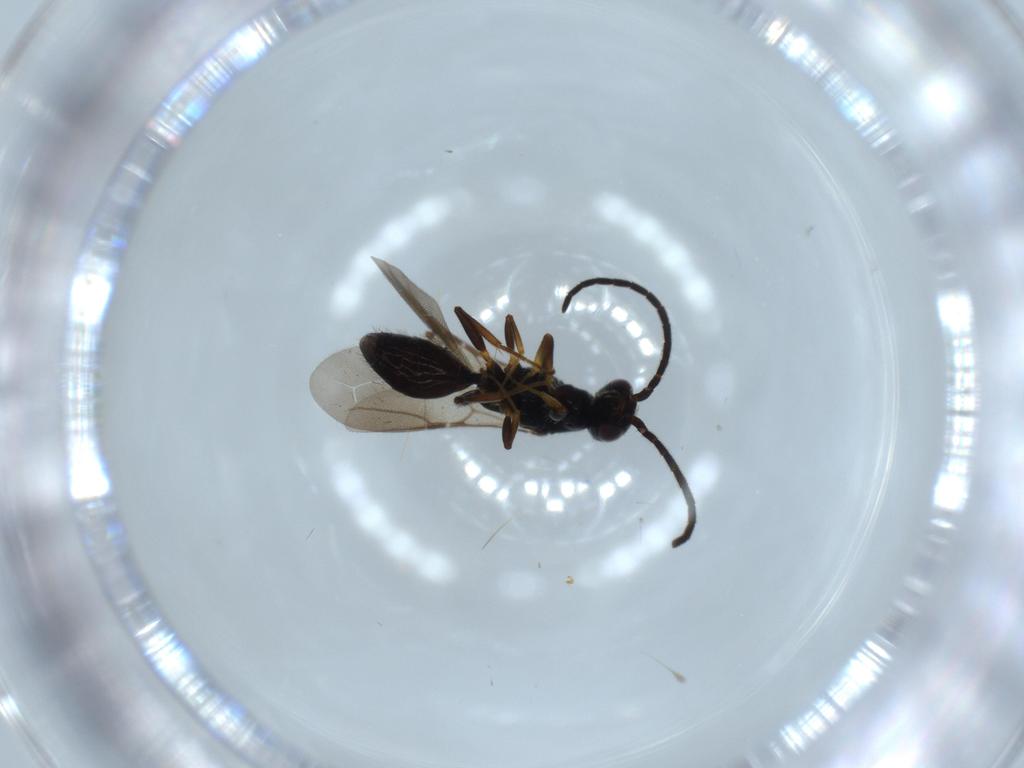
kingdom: Animalia
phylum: Arthropoda
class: Insecta
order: Hymenoptera
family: Bethylidae
